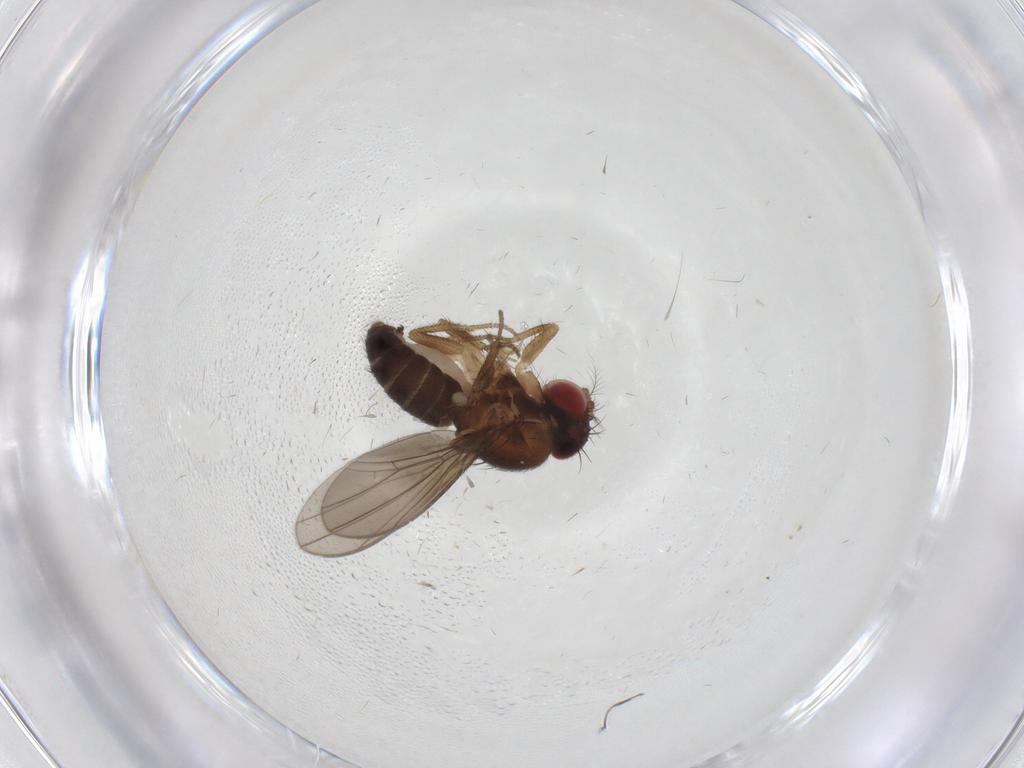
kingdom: Animalia
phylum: Arthropoda
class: Insecta
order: Diptera
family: Drosophilidae
